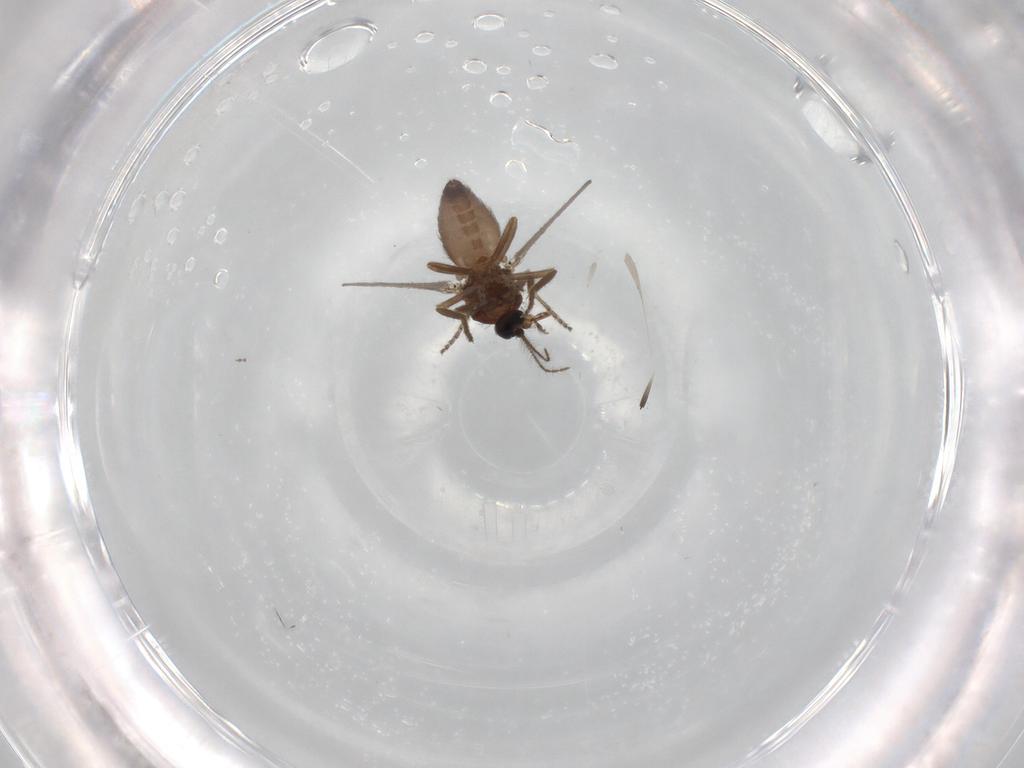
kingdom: Animalia
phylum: Arthropoda
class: Insecta
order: Diptera
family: Ceratopogonidae
